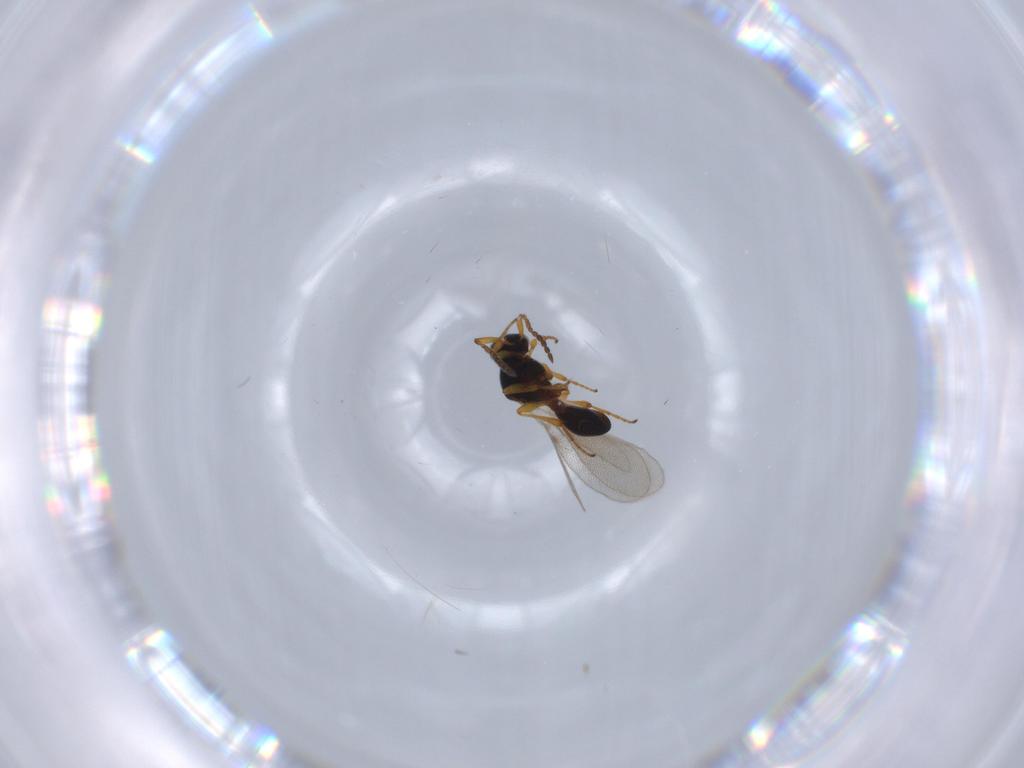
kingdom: Animalia
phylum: Arthropoda
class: Insecta
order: Hymenoptera
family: Platygastridae
